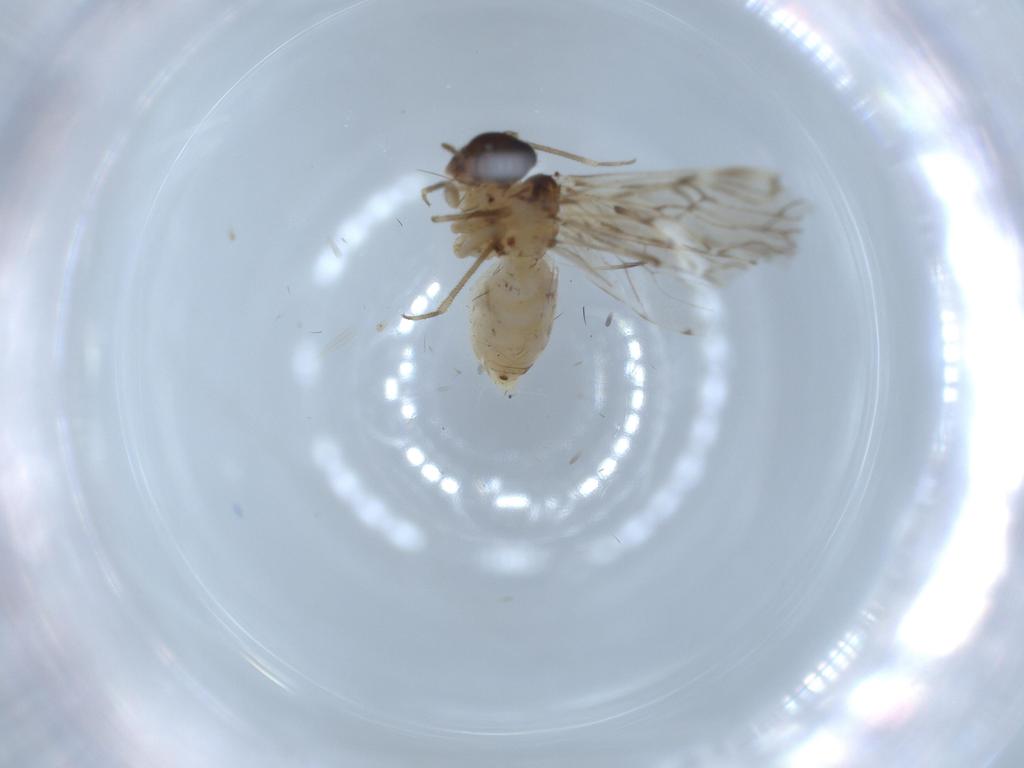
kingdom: Animalia
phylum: Arthropoda
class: Insecta
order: Psocodea
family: Epipsocidae
